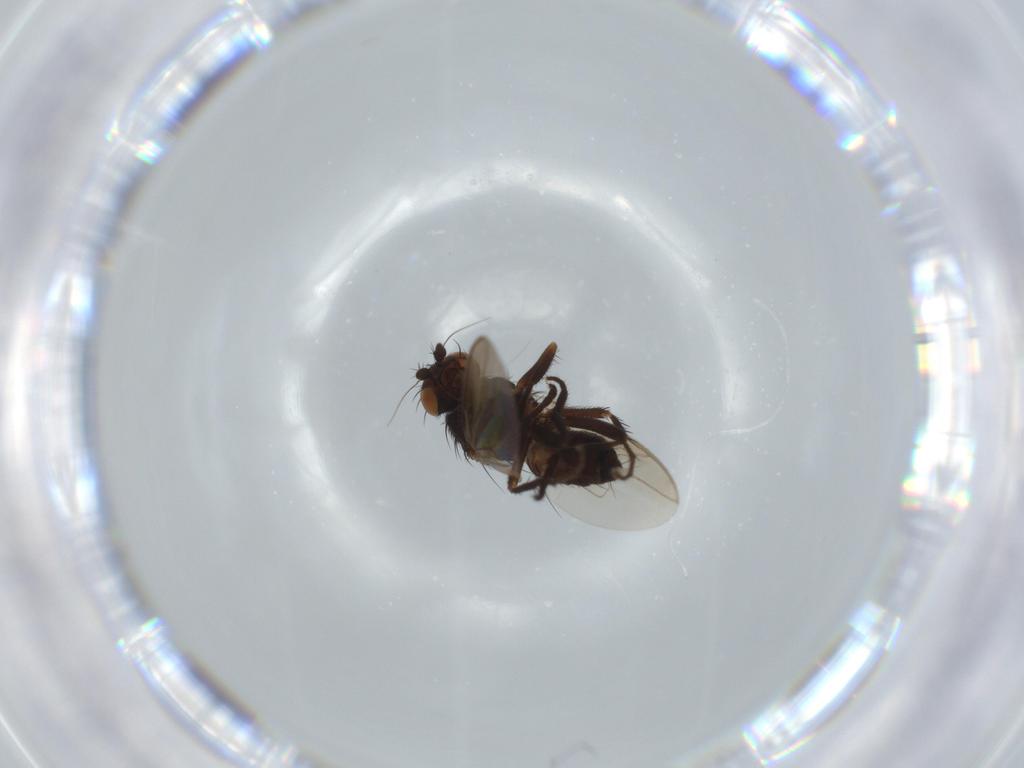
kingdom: Animalia
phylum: Arthropoda
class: Insecta
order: Diptera
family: Sphaeroceridae
